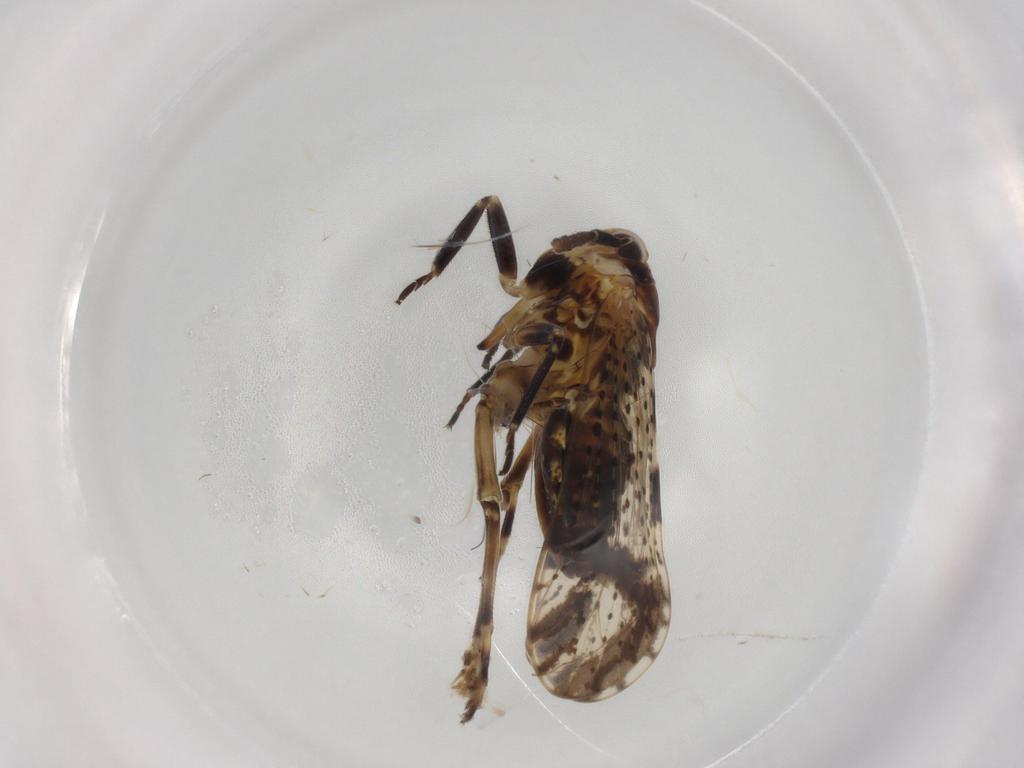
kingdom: Animalia
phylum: Arthropoda
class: Insecta
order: Hemiptera
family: Delphacidae
